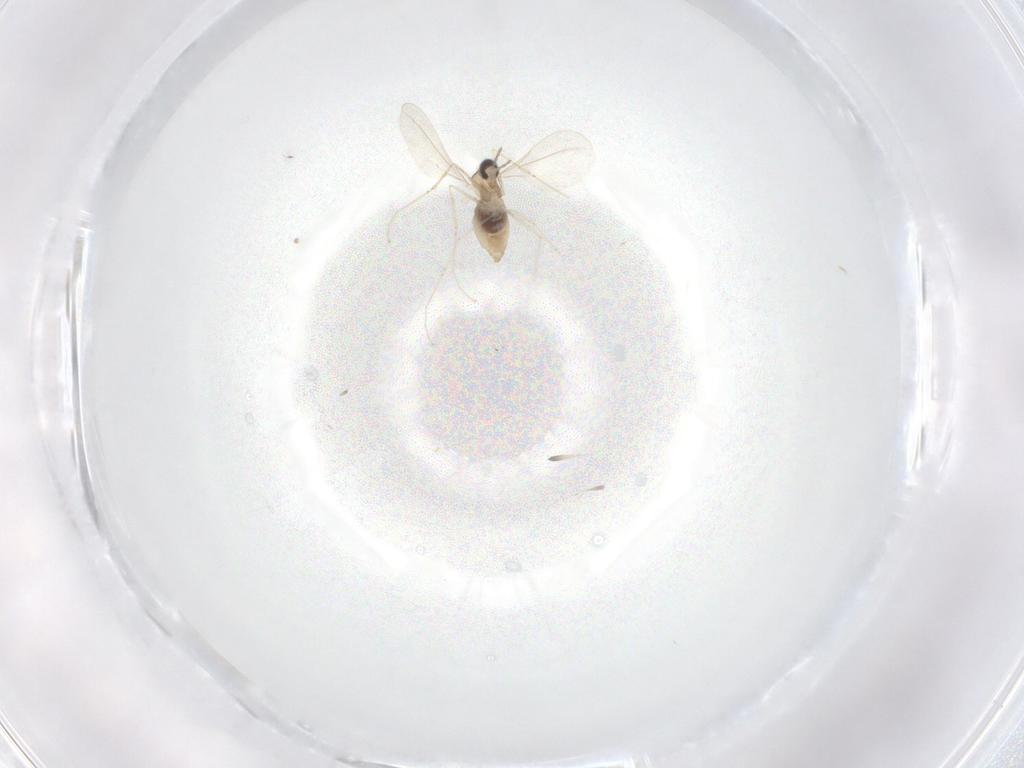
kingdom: Animalia
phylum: Arthropoda
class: Insecta
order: Diptera
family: Cecidomyiidae
